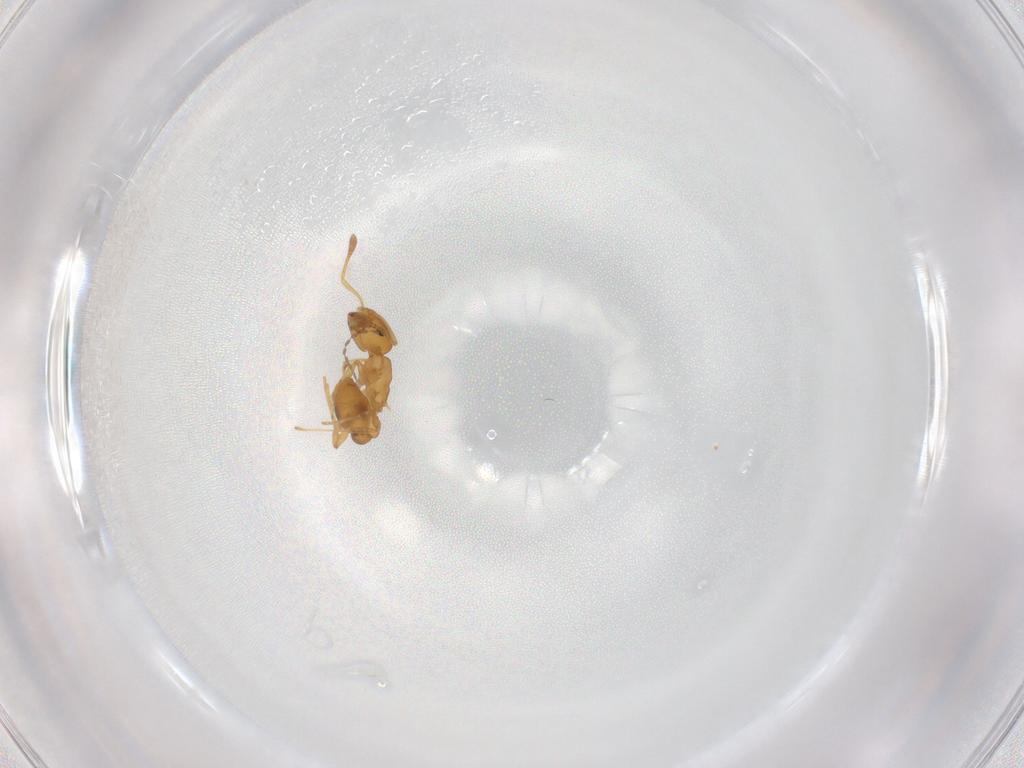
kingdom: Animalia
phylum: Arthropoda
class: Insecta
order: Hymenoptera
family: Formicidae
